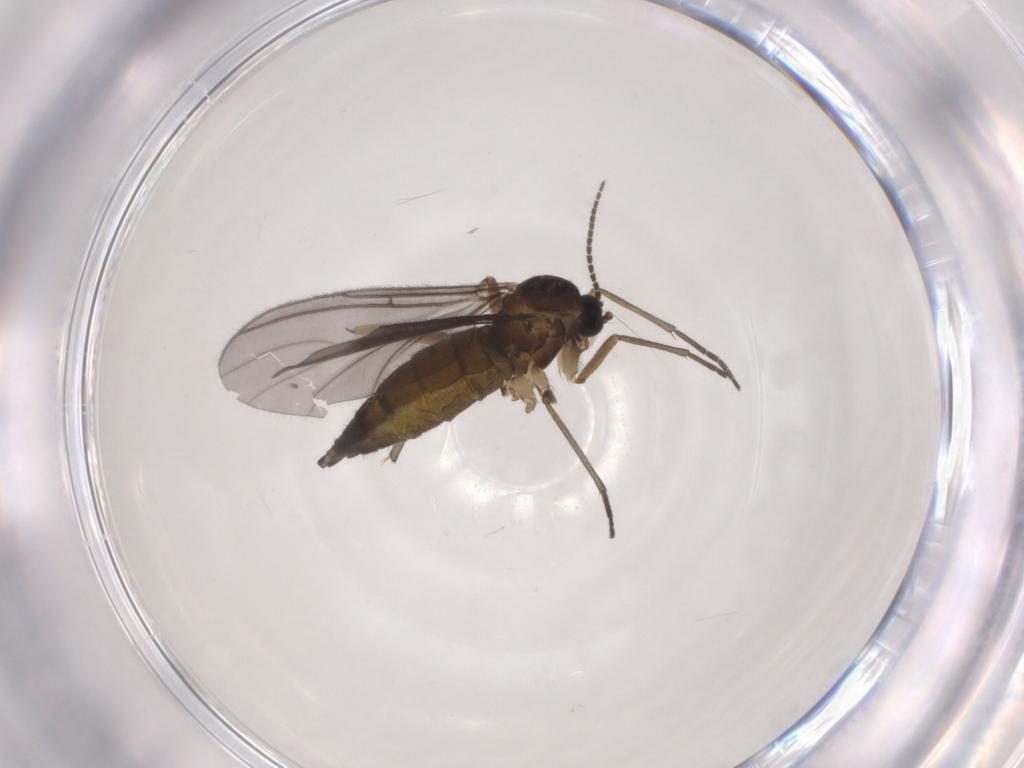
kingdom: Animalia
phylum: Arthropoda
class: Insecta
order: Diptera
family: Sciaridae
